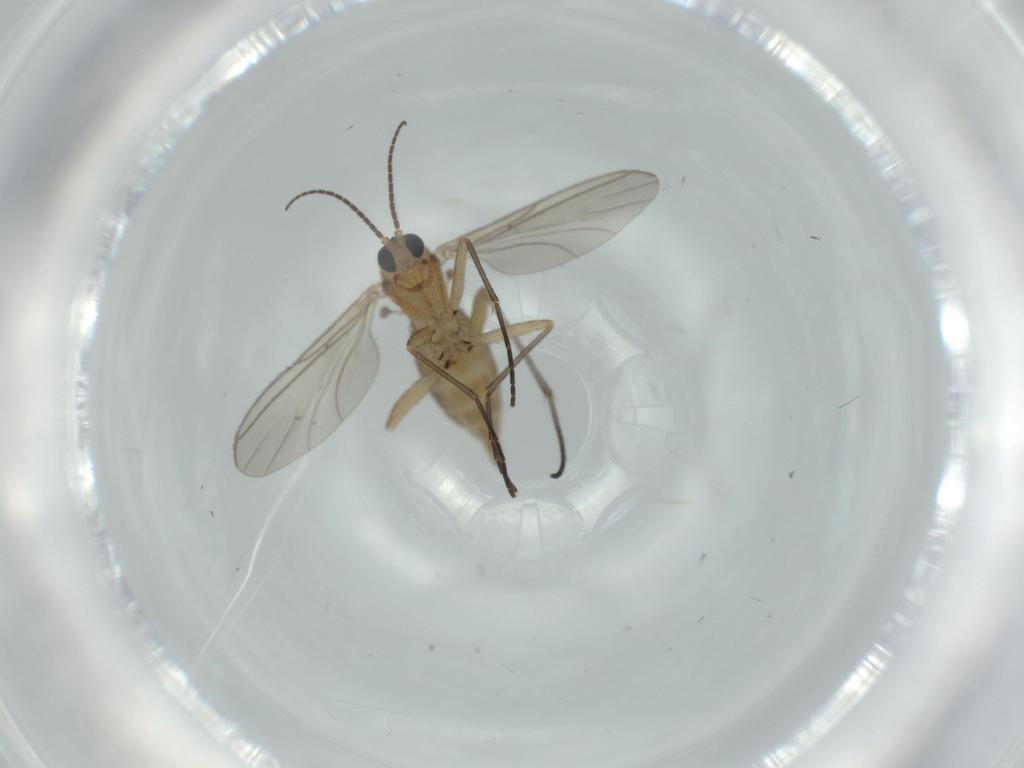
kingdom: Animalia
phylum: Arthropoda
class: Insecta
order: Diptera
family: Sciaridae
